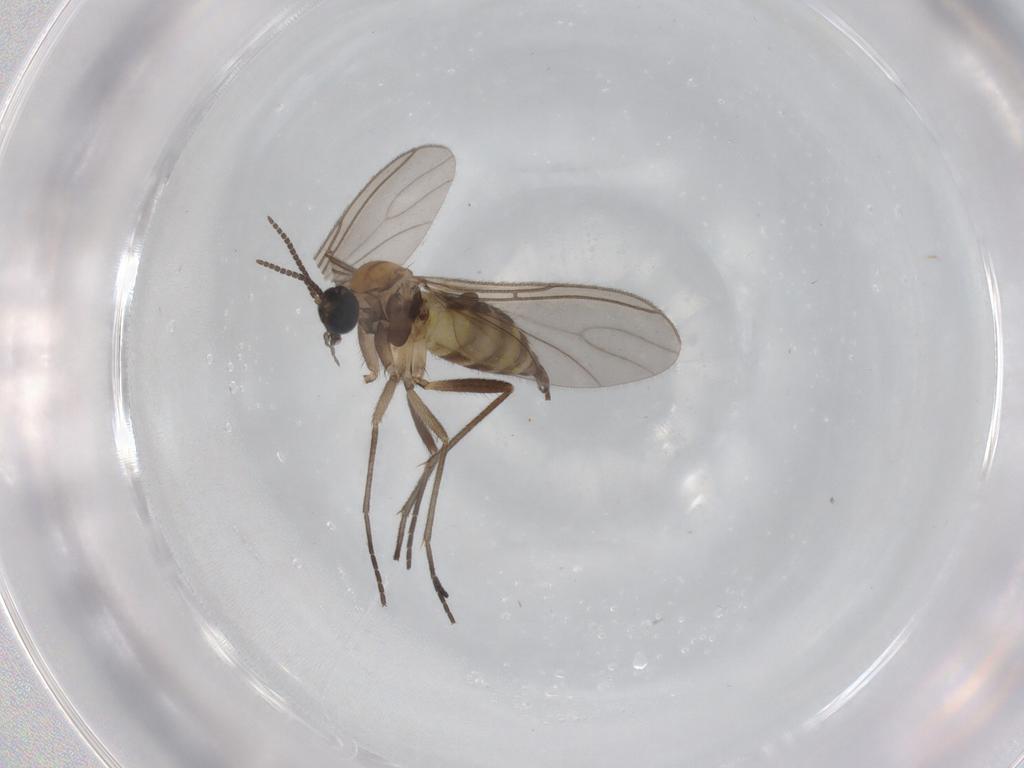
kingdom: Animalia
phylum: Arthropoda
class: Insecta
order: Diptera
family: Sciaridae
